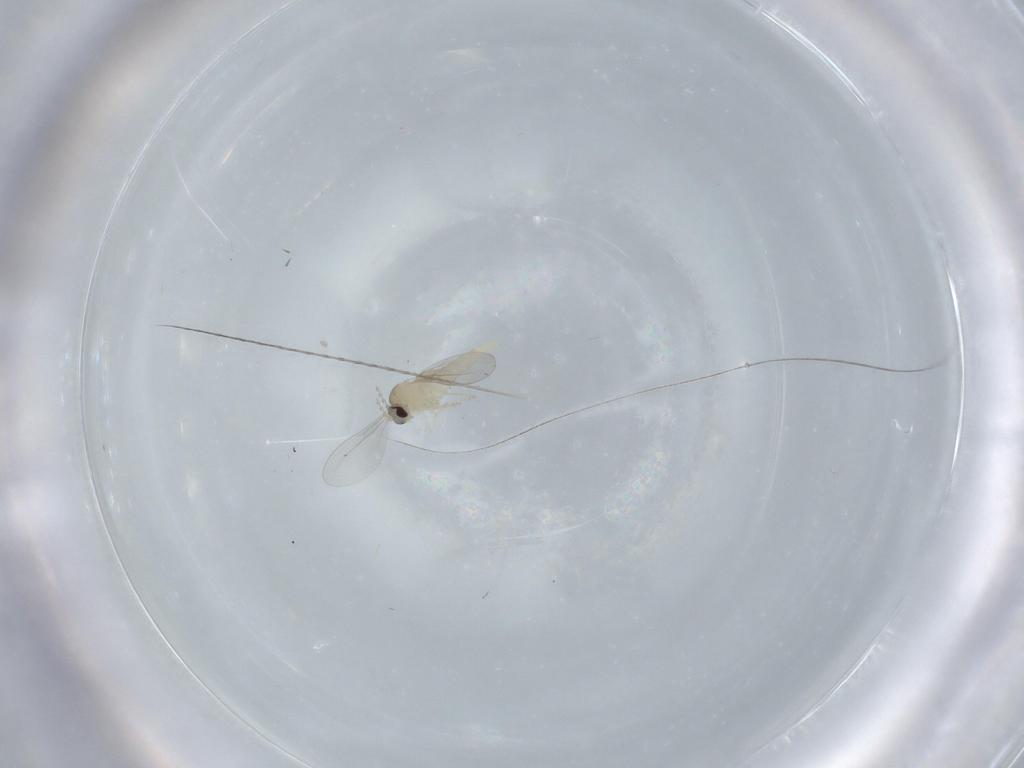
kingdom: Animalia
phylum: Arthropoda
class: Insecta
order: Diptera
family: Cecidomyiidae
